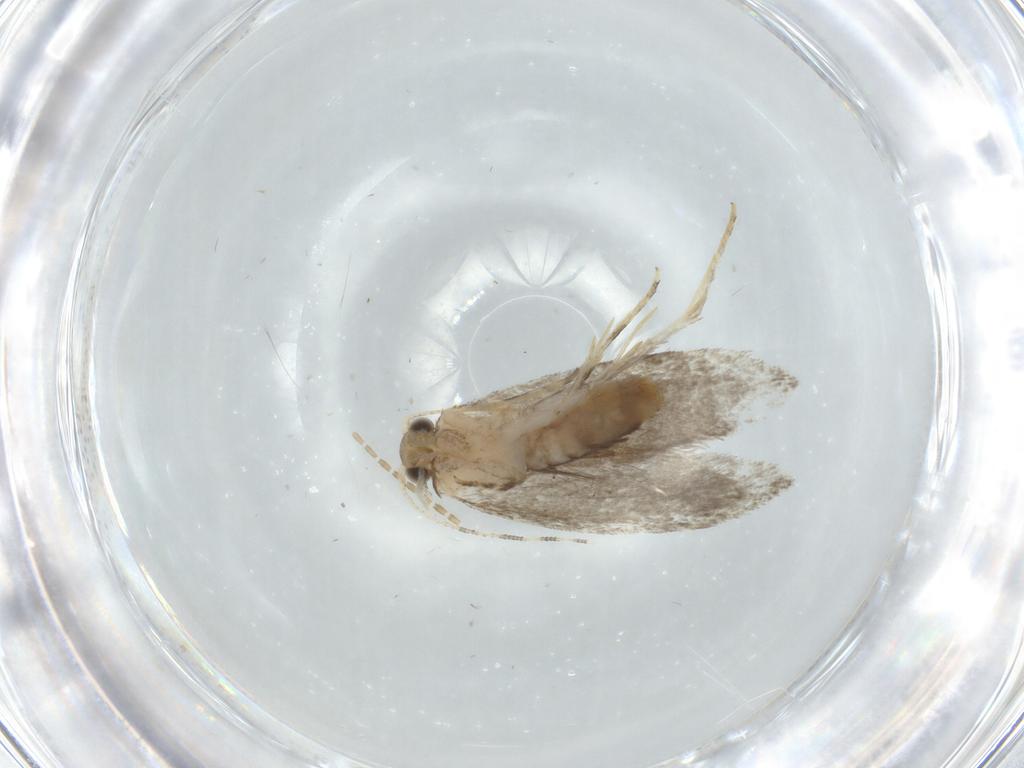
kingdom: Animalia
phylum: Arthropoda
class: Insecta
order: Lepidoptera
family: Tineidae
